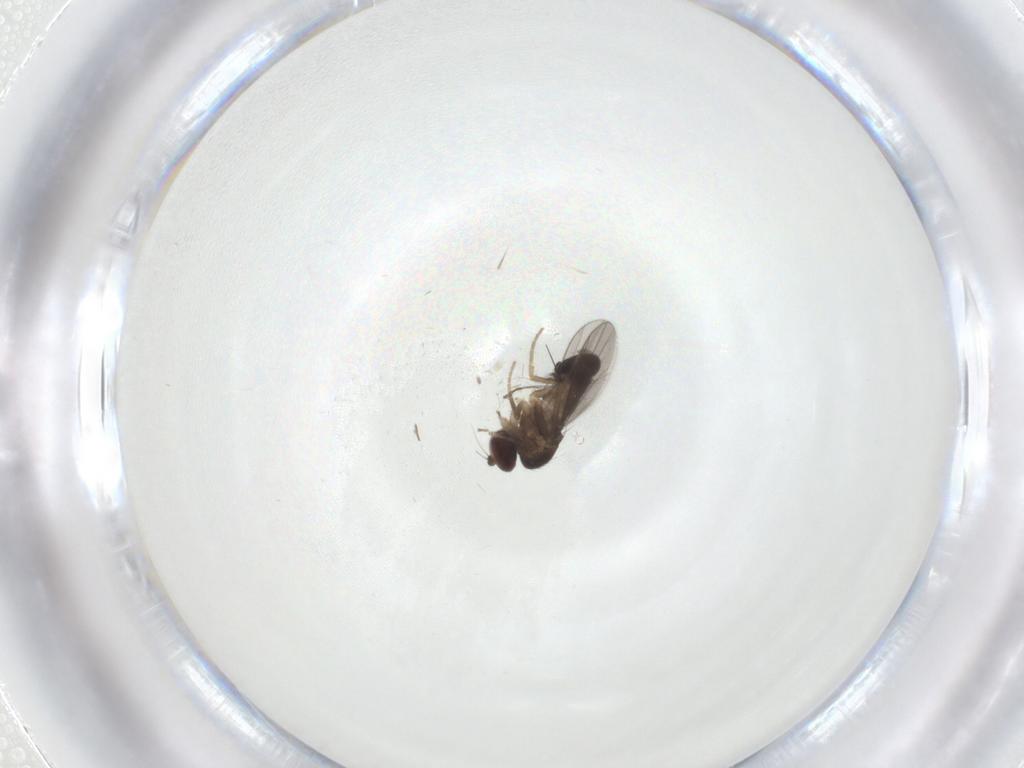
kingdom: Animalia
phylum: Arthropoda
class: Insecta
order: Diptera
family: Dolichopodidae
